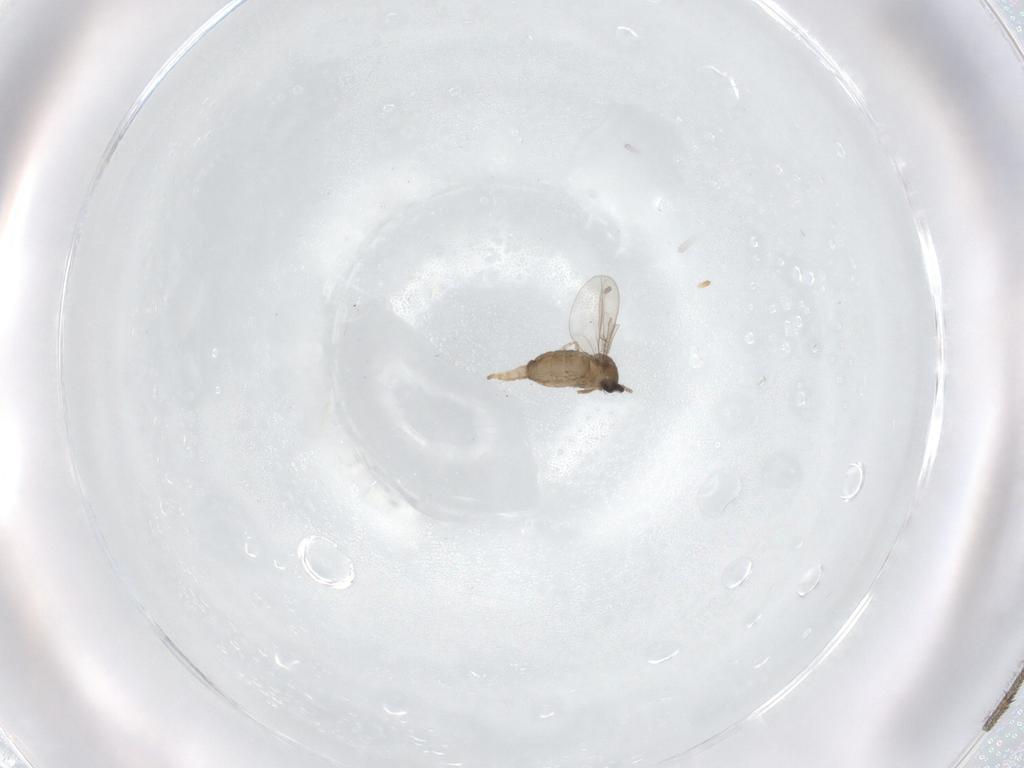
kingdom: Animalia
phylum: Arthropoda
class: Insecta
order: Diptera
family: Cecidomyiidae
